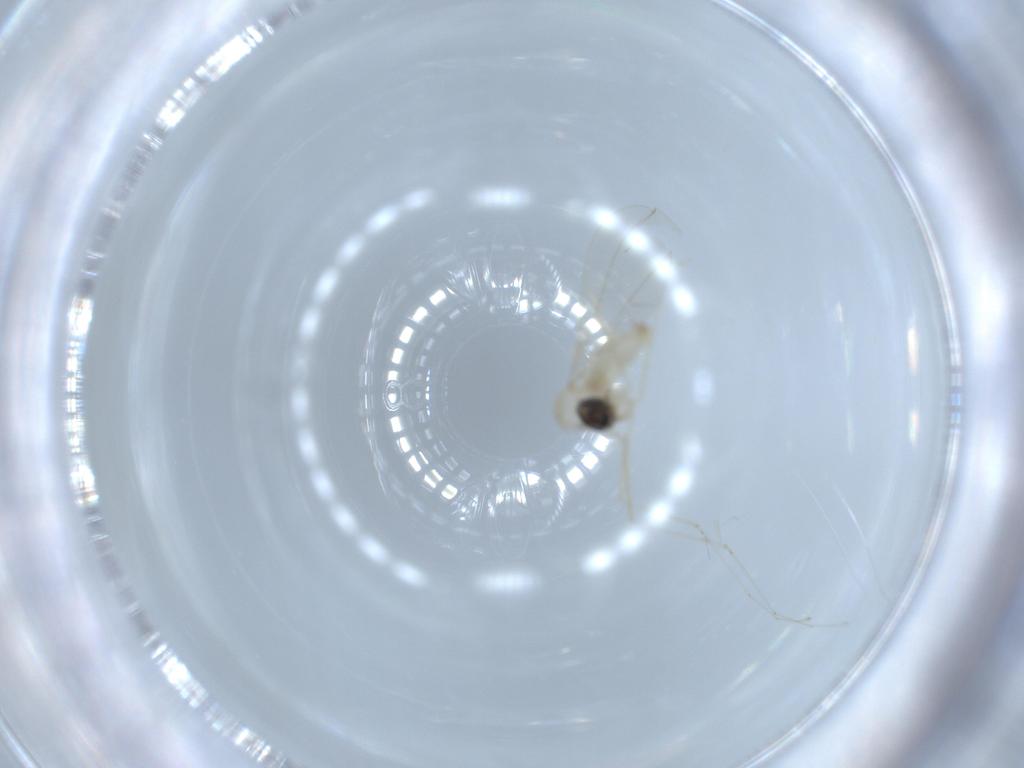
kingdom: Animalia
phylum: Arthropoda
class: Insecta
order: Diptera
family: Cecidomyiidae
